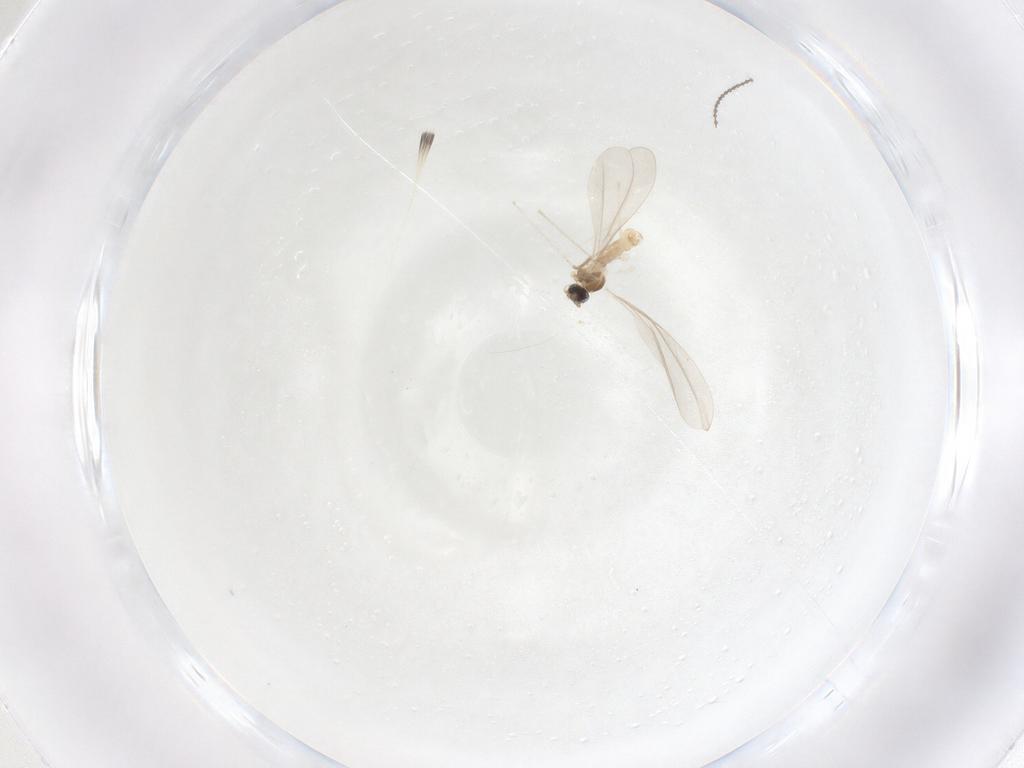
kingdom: Animalia
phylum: Arthropoda
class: Insecta
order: Diptera
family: Cecidomyiidae
